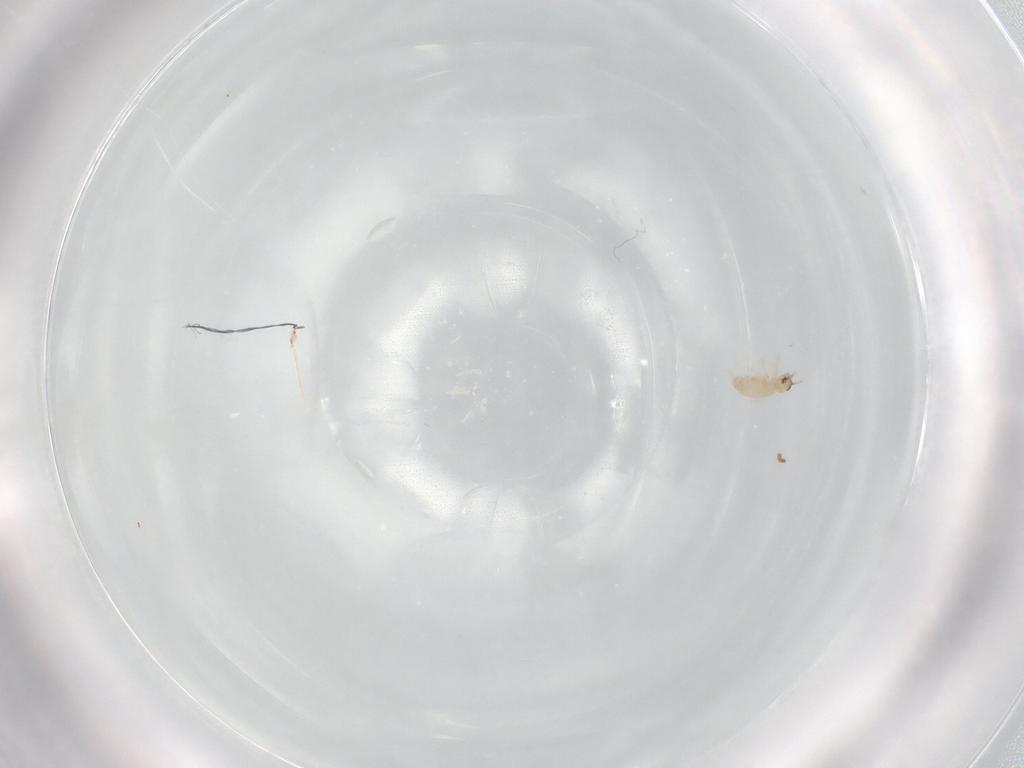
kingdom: Animalia
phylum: Arthropoda
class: Collembola
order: Entomobryomorpha
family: Entomobryidae
